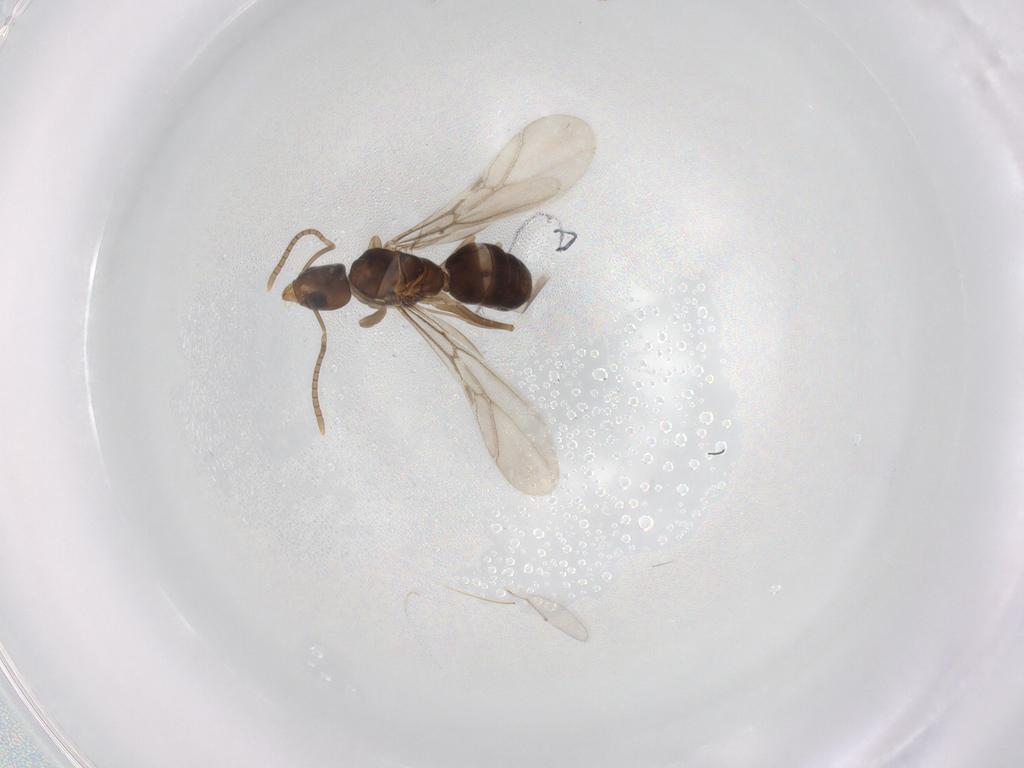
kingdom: Animalia
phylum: Arthropoda
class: Insecta
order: Hymenoptera
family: Formicidae
